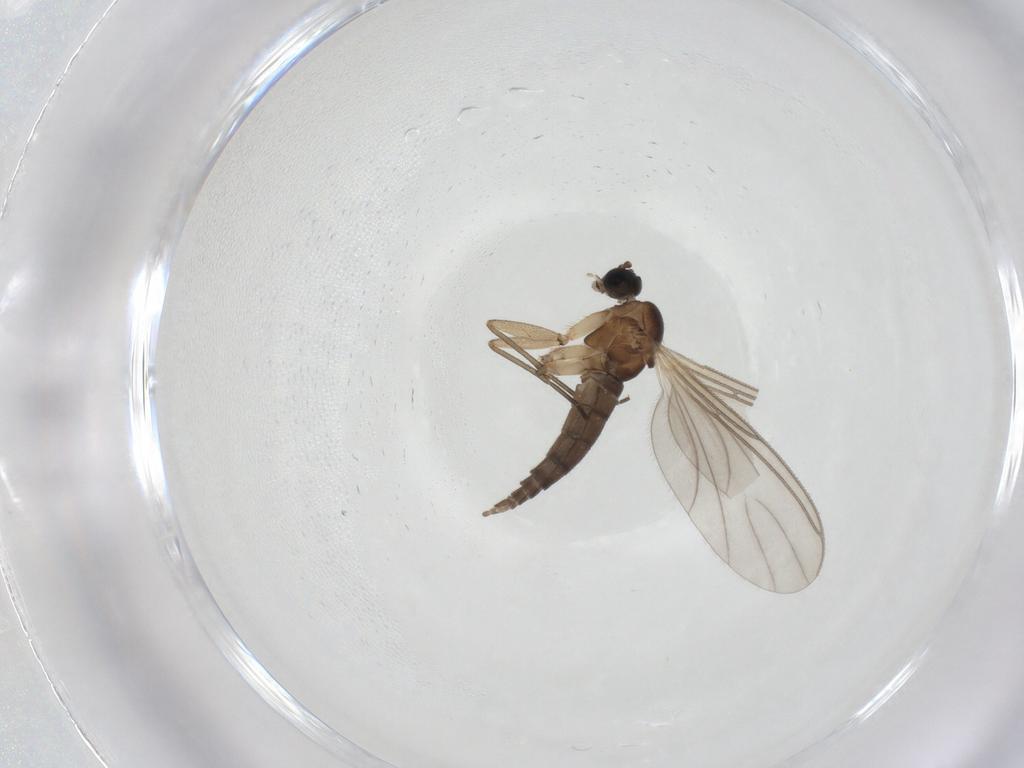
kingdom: Animalia
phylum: Arthropoda
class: Insecta
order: Diptera
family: Sciaridae
